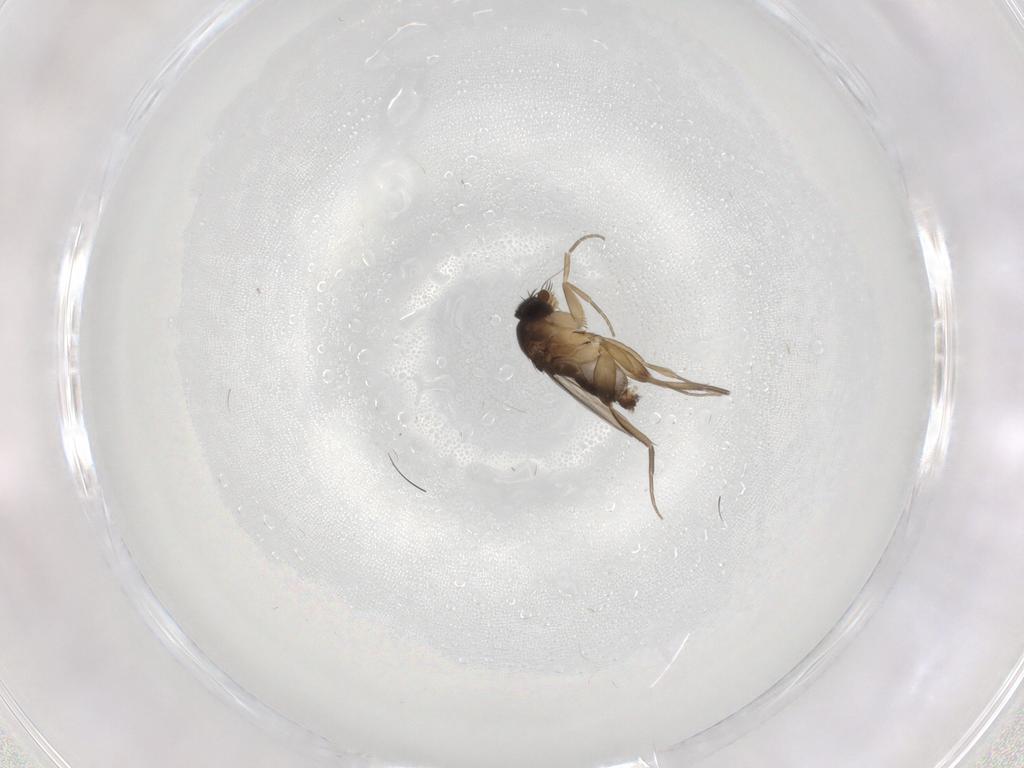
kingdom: Animalia
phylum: Arthropoda
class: Insecta
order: Diptera
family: Phoridae
